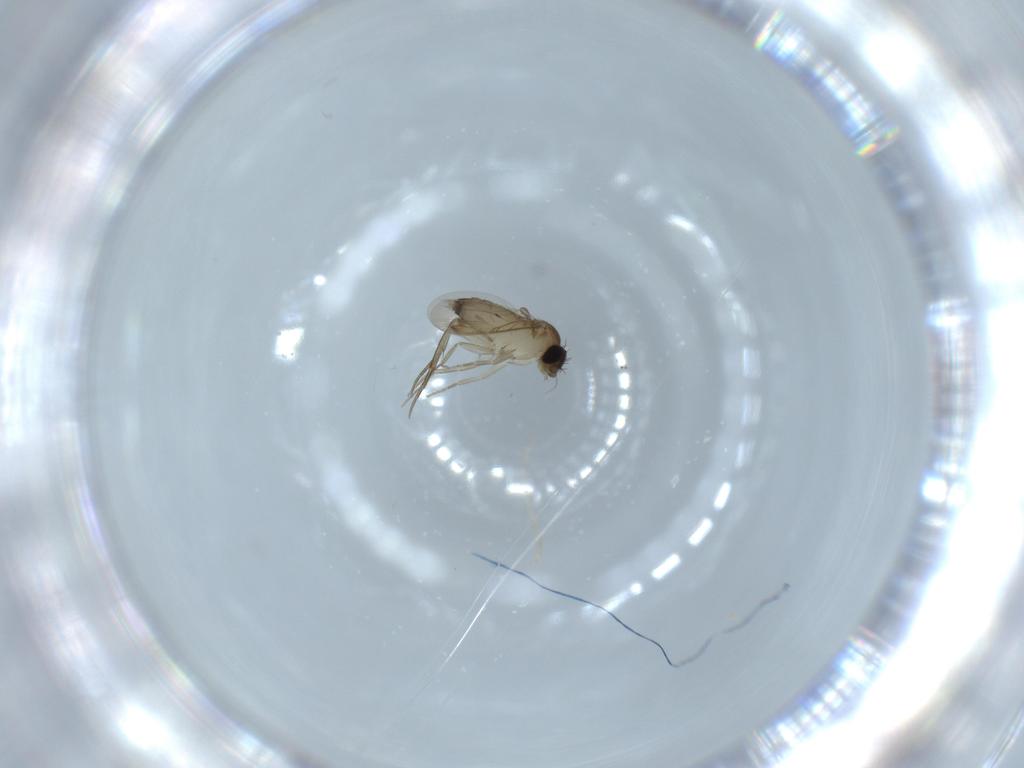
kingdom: Animalia
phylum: Arthropoda
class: Insecta
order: Diptera
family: Phoridae
